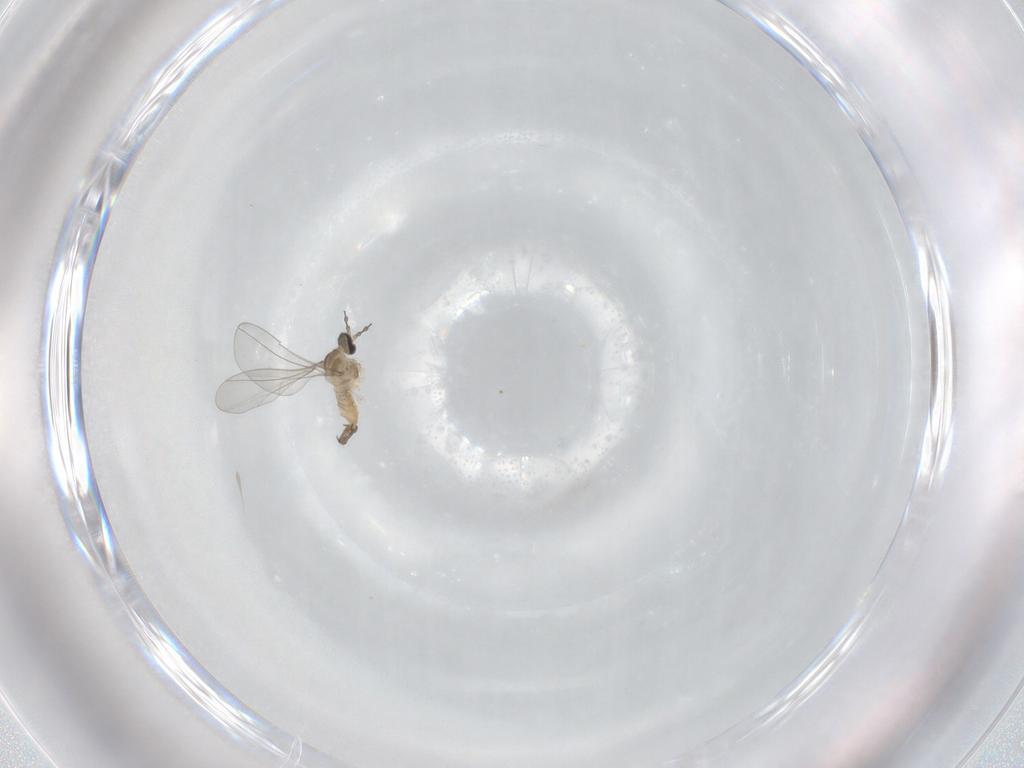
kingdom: Animalia
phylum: Arthropoda
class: Insecta
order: Diptera
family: Cecidomyiidae
